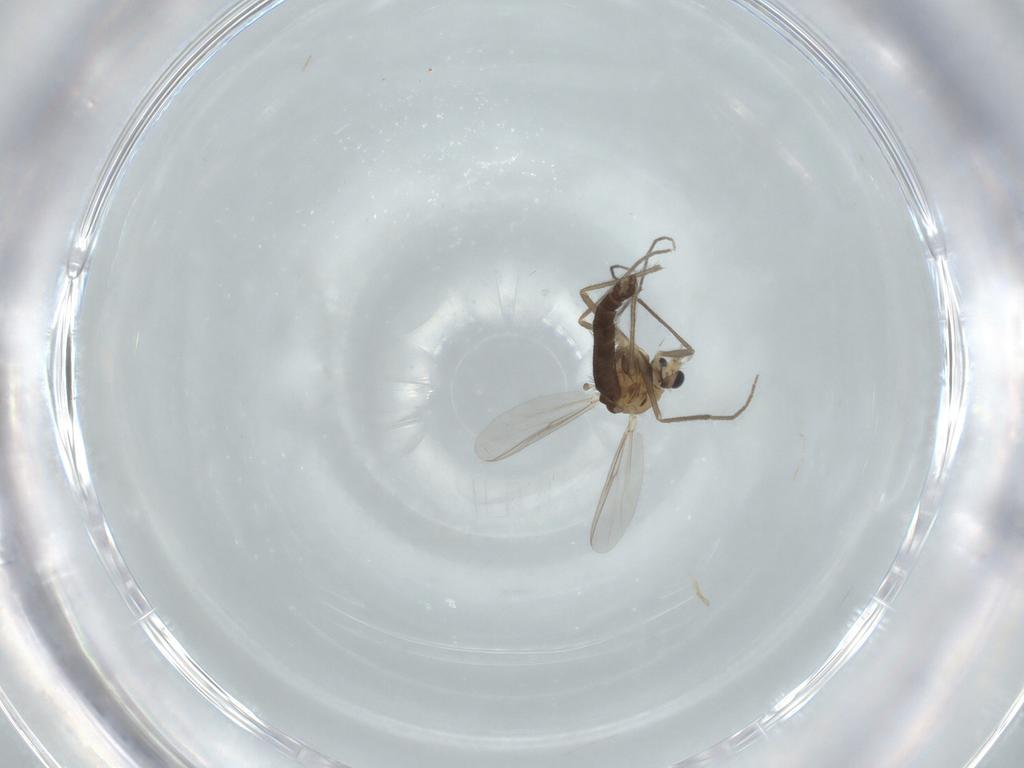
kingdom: Animalia
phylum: Arthropoda
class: Insecta
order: Diptera
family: Chironomidae
